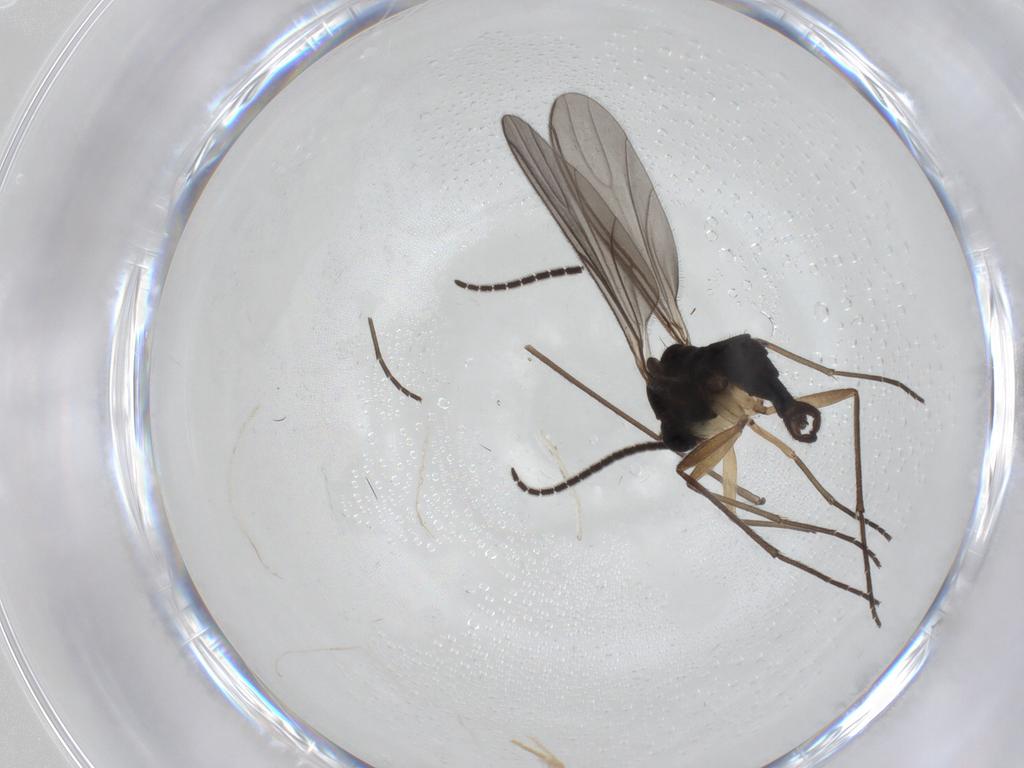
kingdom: Animalia
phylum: Arthropoda
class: Insecta
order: Diptera
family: Chironomidae
